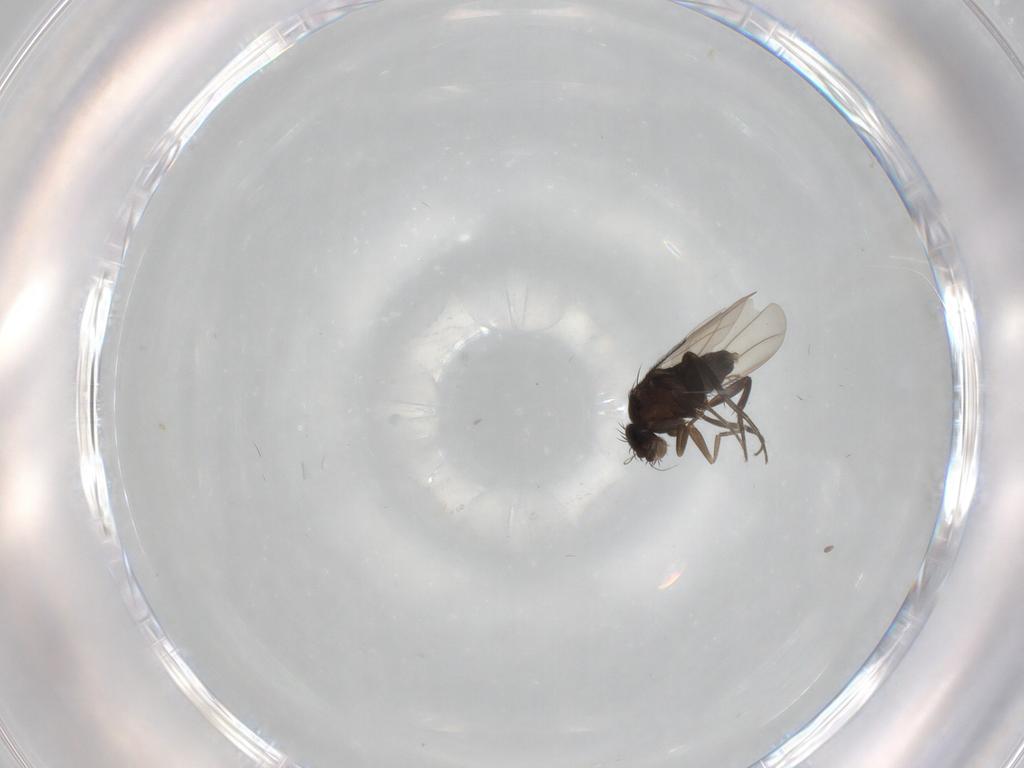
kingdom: Animalia
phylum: Arthropoda
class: Insecta
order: Diptera
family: Phoridae
